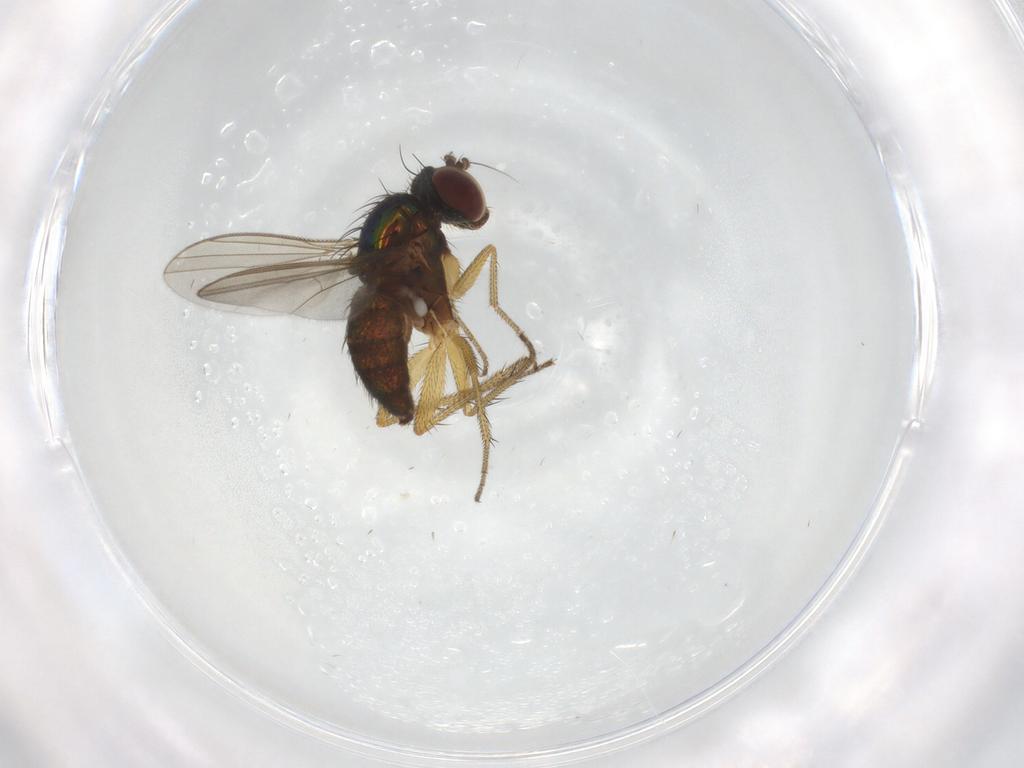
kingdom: Animalia
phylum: Arthropoda
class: Insecta
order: Diptera
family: Dolichopodidae
